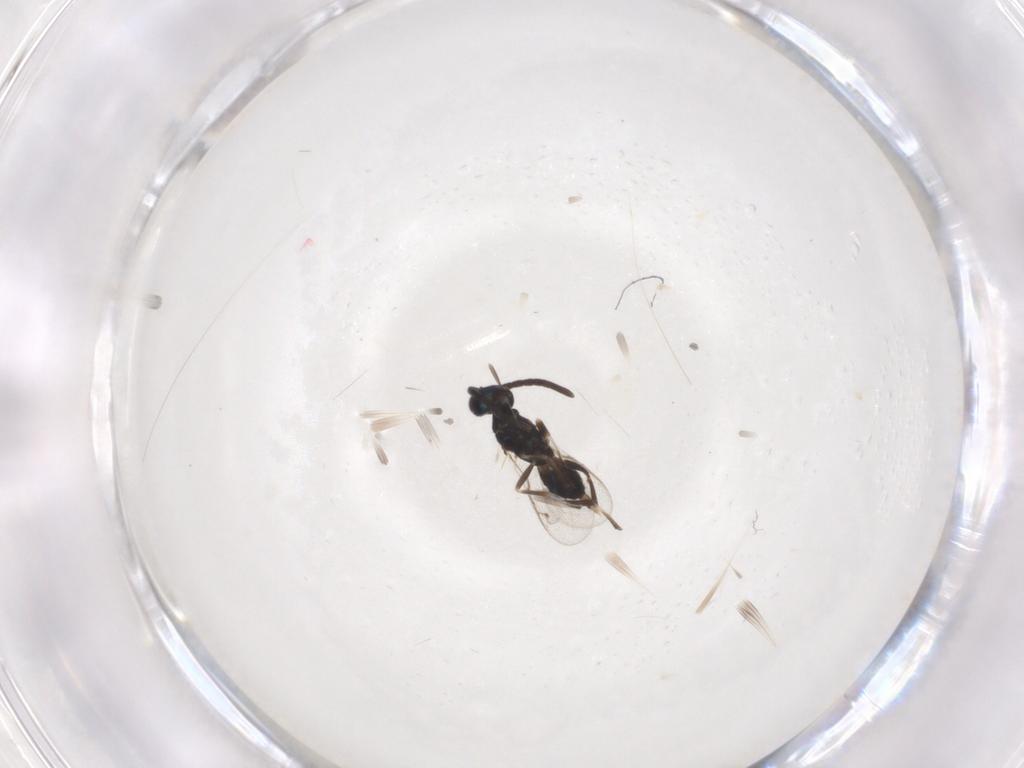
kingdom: Animalia
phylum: Arthropoda
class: Insecta
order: Hymenoptera
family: Eupelmidae
